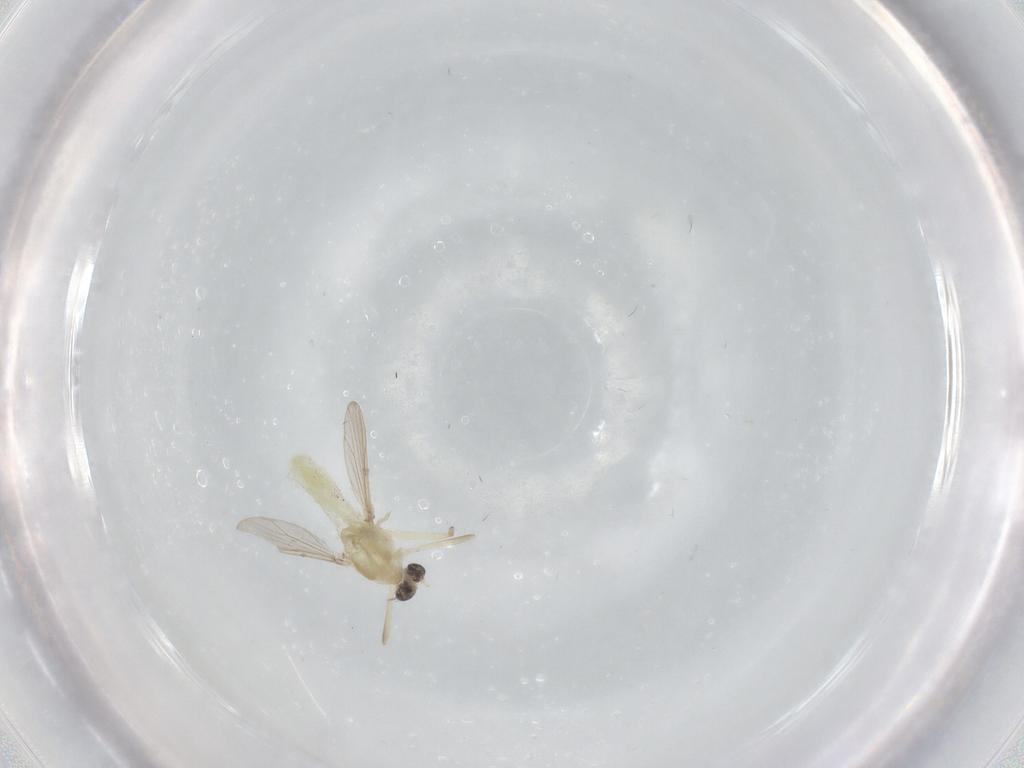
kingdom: Animalia
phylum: Arthropoda
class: Insecta
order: Diptera
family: Chironomidae
